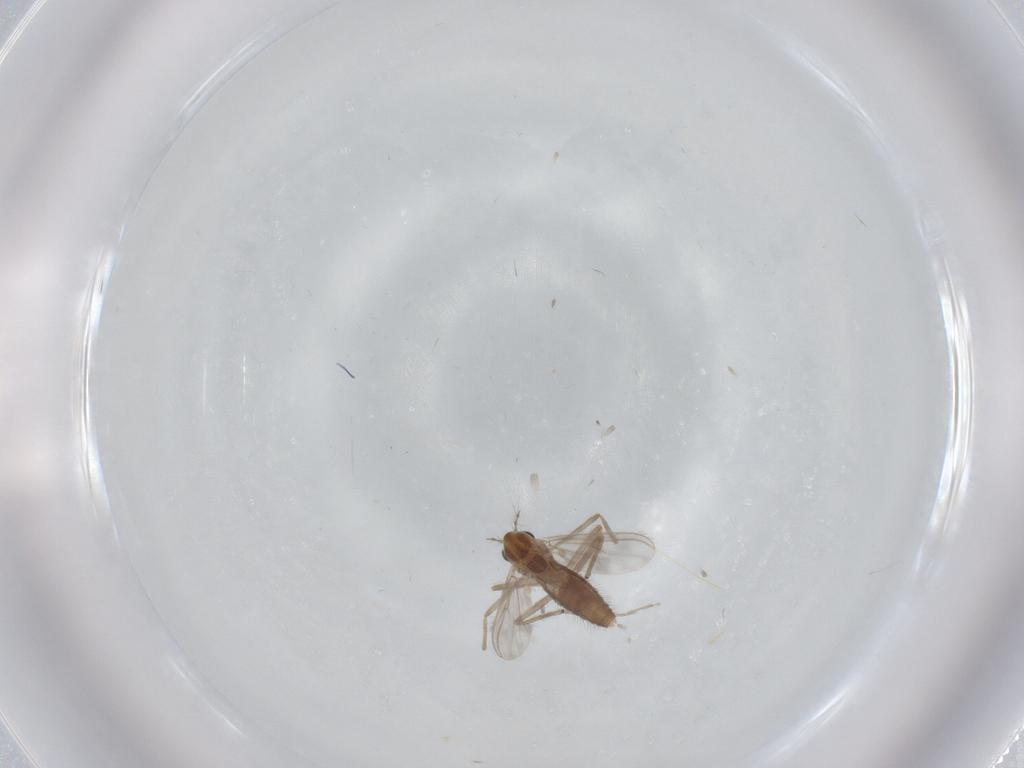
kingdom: Animalia
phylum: Arthropoda
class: Insecta
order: Diptera
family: Chironomidae
